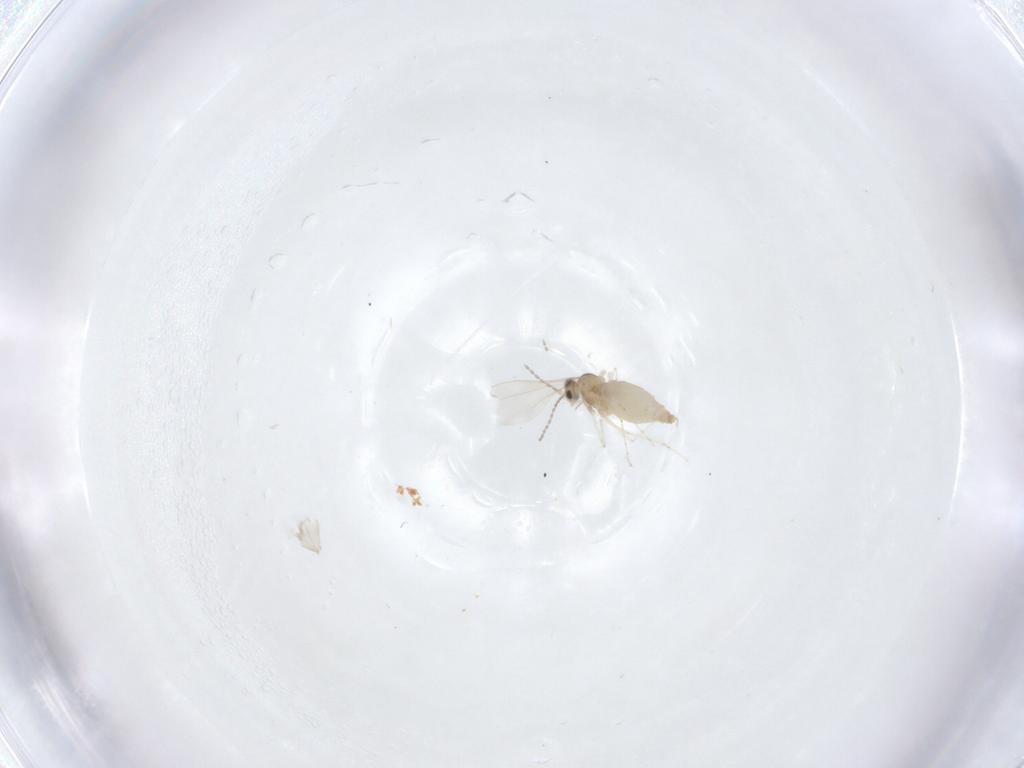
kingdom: Animalia
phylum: Arthropoda
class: Insecta
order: Diptera
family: Cecidomyiidae
